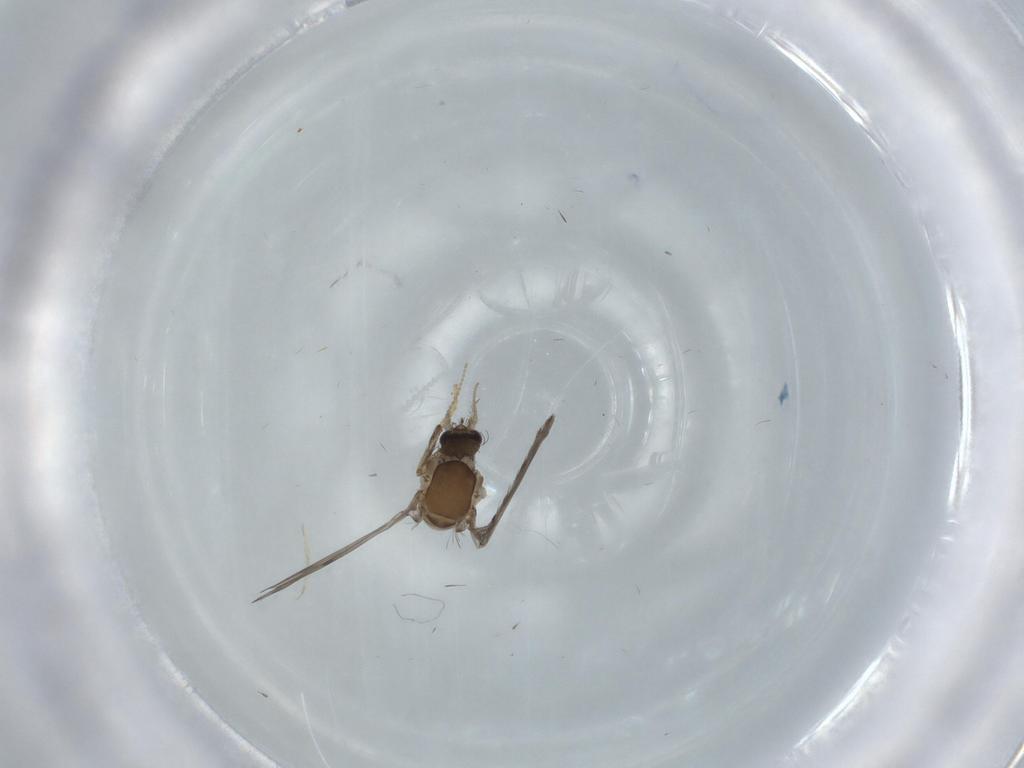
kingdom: Animalia
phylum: Arthropoda
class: Insecta
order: Diptera
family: Psychodidae
